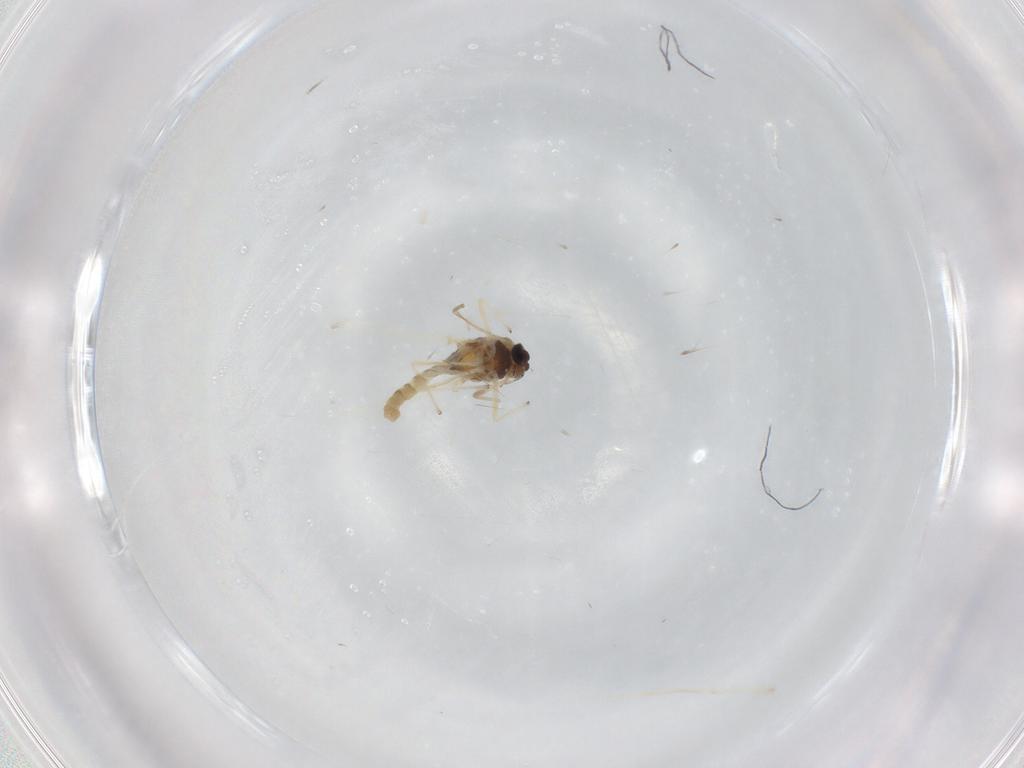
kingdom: Animalia
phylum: Arthropoda
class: Insecta
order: Diptera
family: Chironomidae
